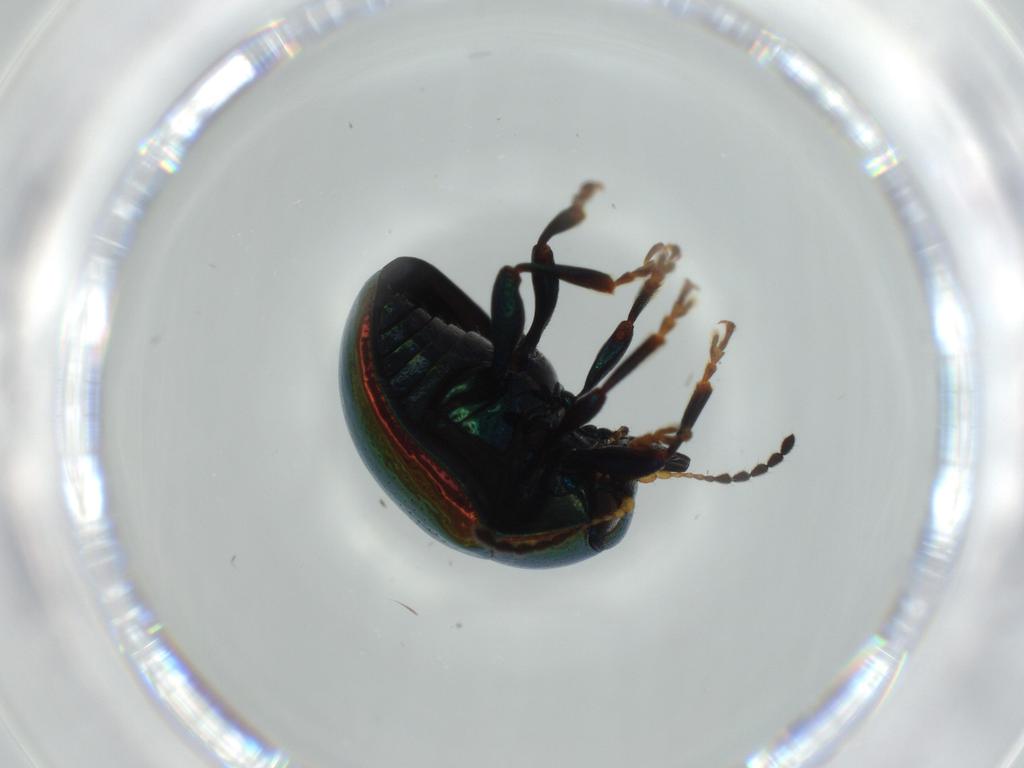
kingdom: Animalia
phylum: Arthropoda
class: Insecta
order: Coleoptera
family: Chrysomelidae
